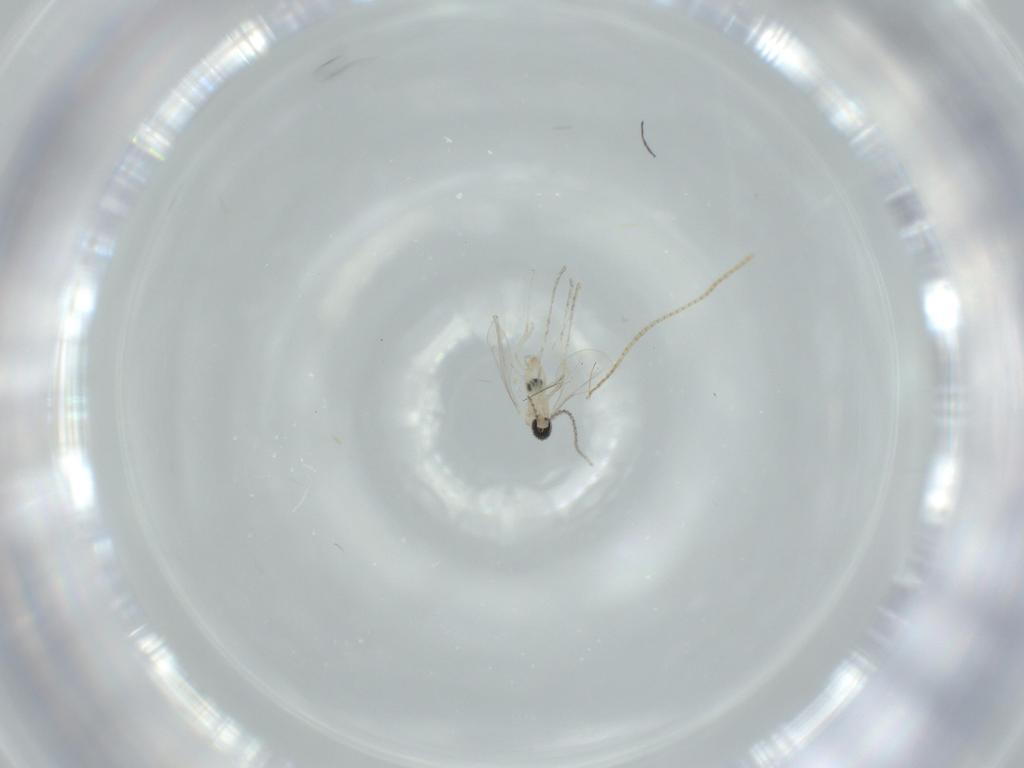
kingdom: Animalia
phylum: Arthropoda
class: Insecta
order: Diptera
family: Cecidomyiidae
